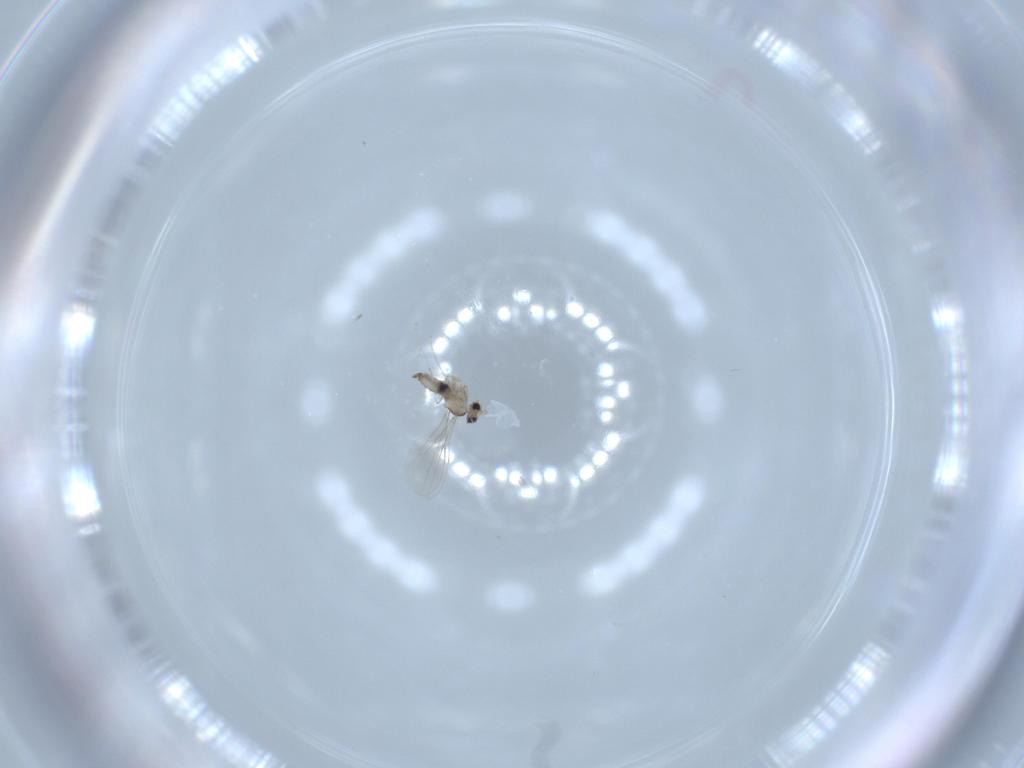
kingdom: Animalia
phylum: Arthropoda
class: Insecta
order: Diptera
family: Cecidomyiidae
